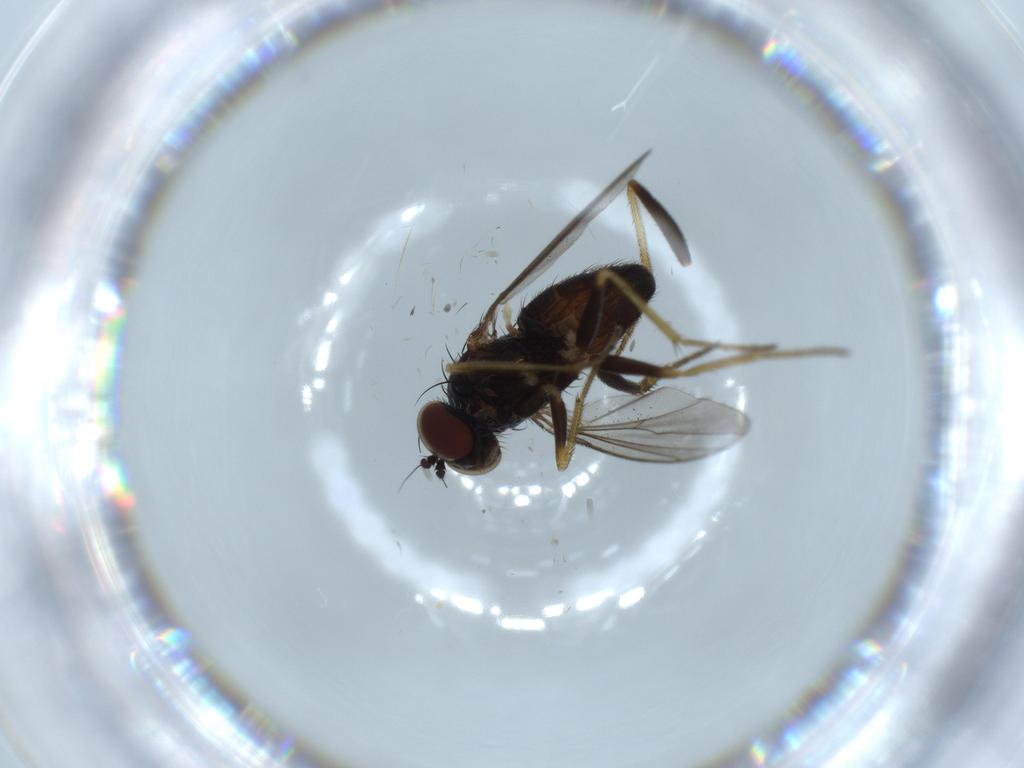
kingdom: Animalia
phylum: Arthropoda
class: Insecta
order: Diptera
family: Dolichopodidae
